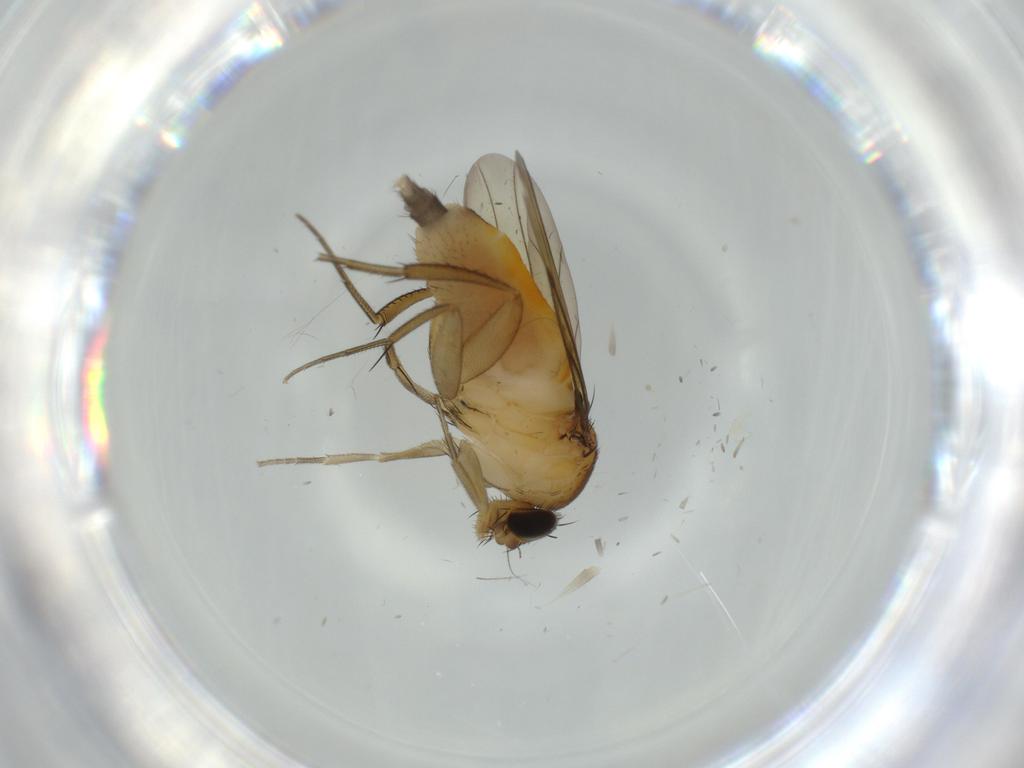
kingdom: Animalia
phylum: Arthropoda
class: Insecta
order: Diptera
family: Phoridae
